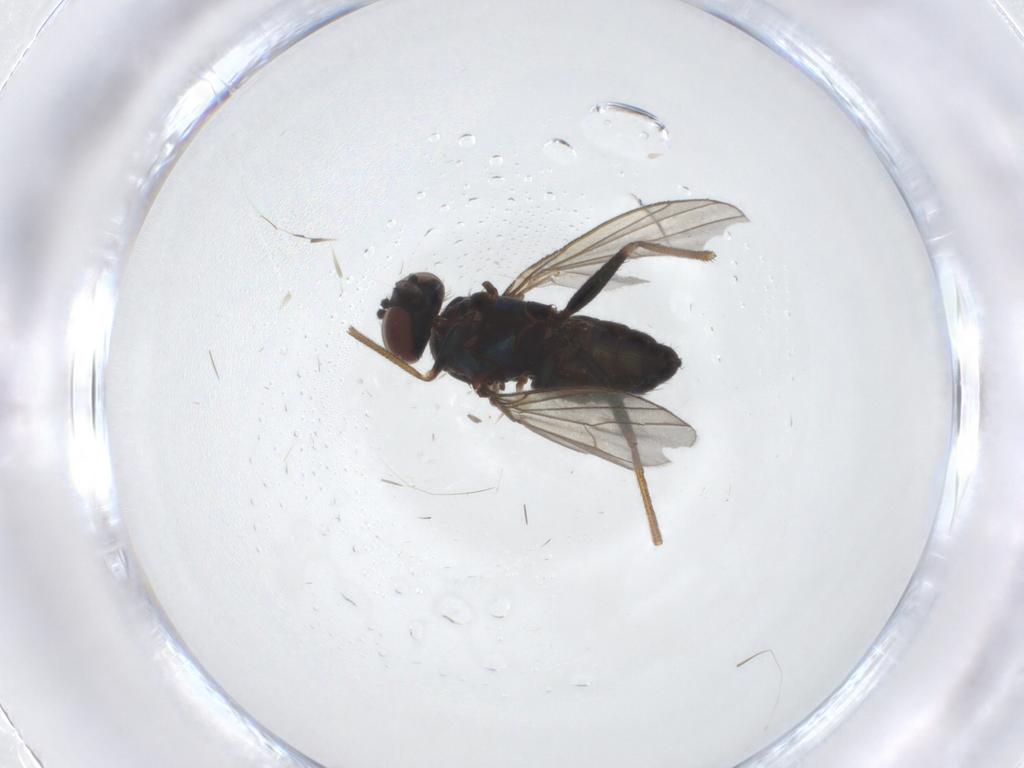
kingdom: Animalia
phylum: Arthropoda
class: Insecta
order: Diptera
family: Dolichopodidae
